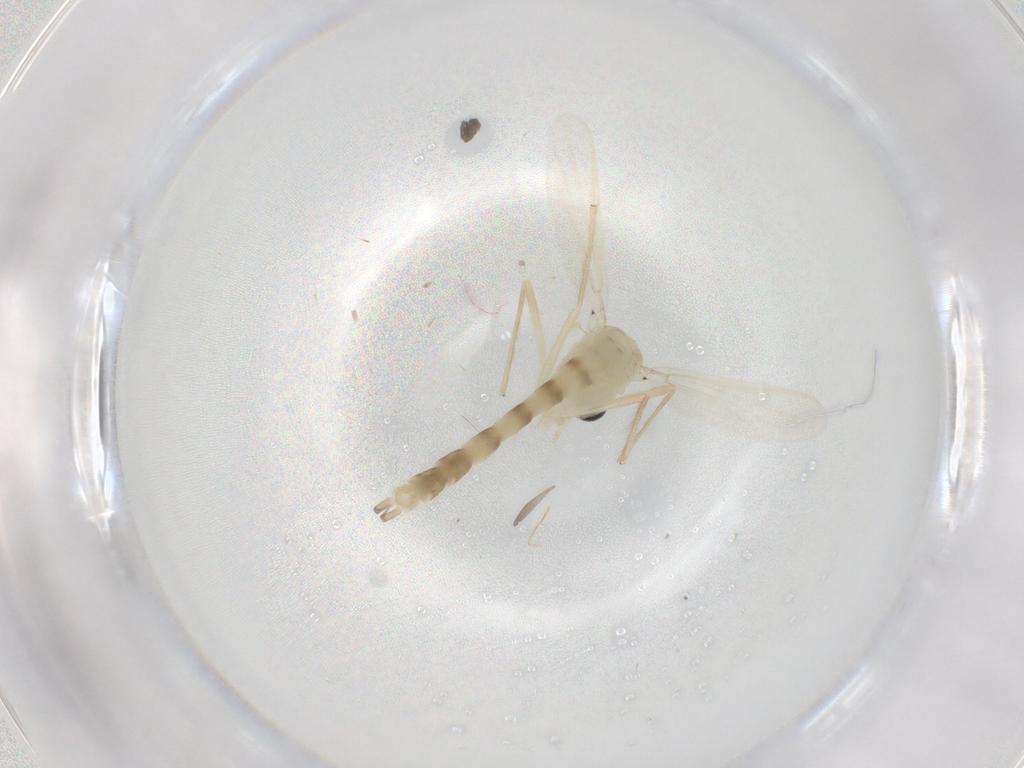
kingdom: Animalia
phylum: Arthropoda
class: Insecta
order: Diptera
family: Chironomidae
